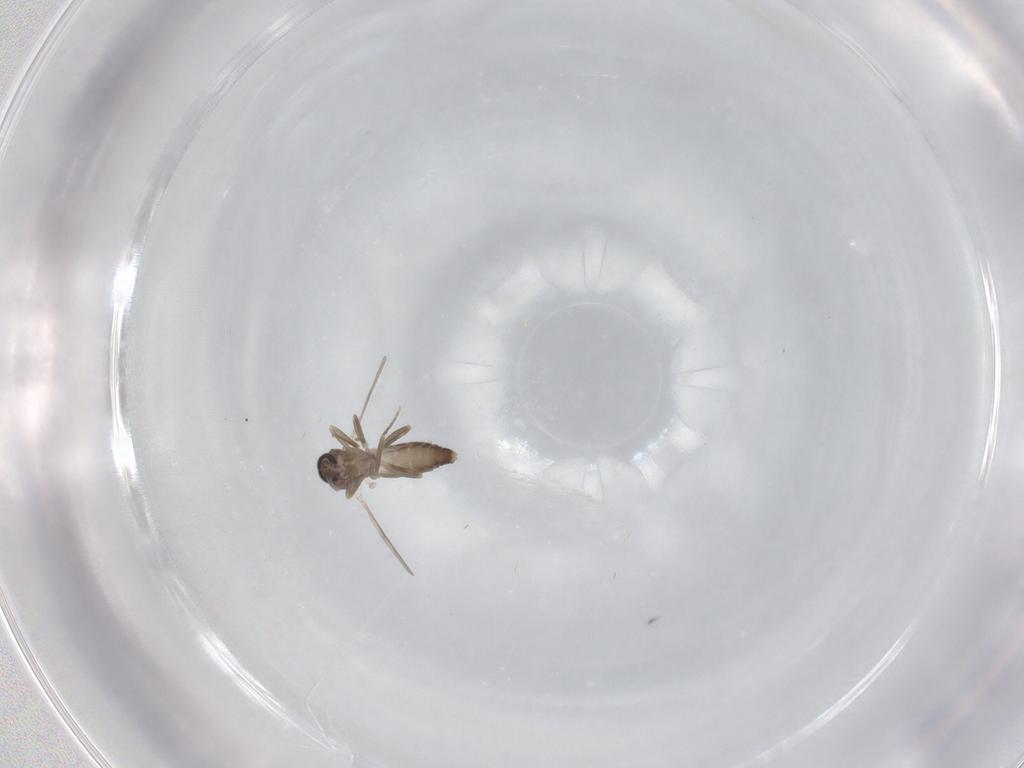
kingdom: Animalia
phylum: Arthropoda
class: Insecta
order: Diptera
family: Ceratopogonidae
